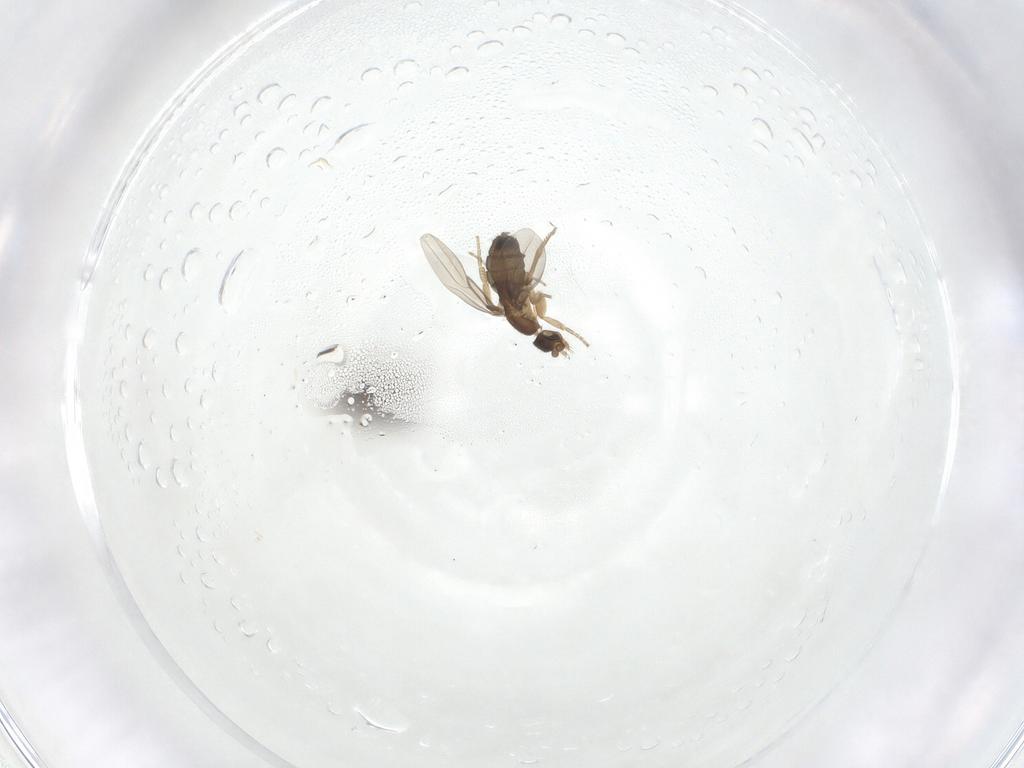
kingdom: Animalia
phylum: Arthropoda
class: Insecta
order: Diptera
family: Phoridae
